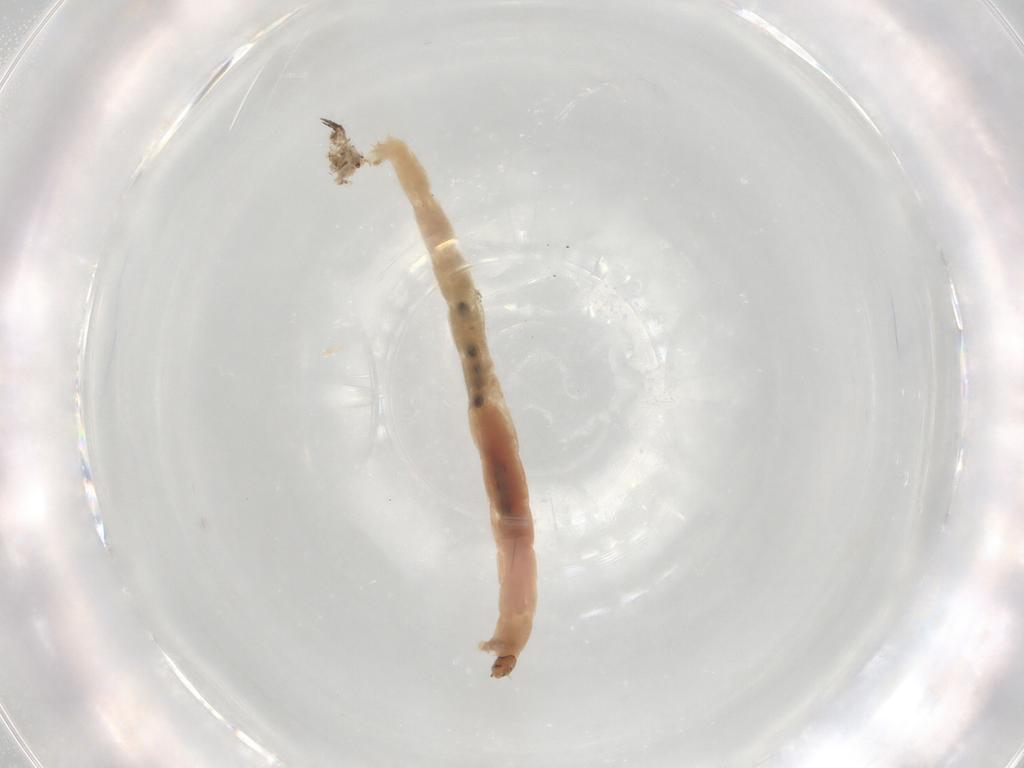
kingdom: Animalia
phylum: Arthropoda
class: Insecta
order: Diptera
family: Chironomidae
